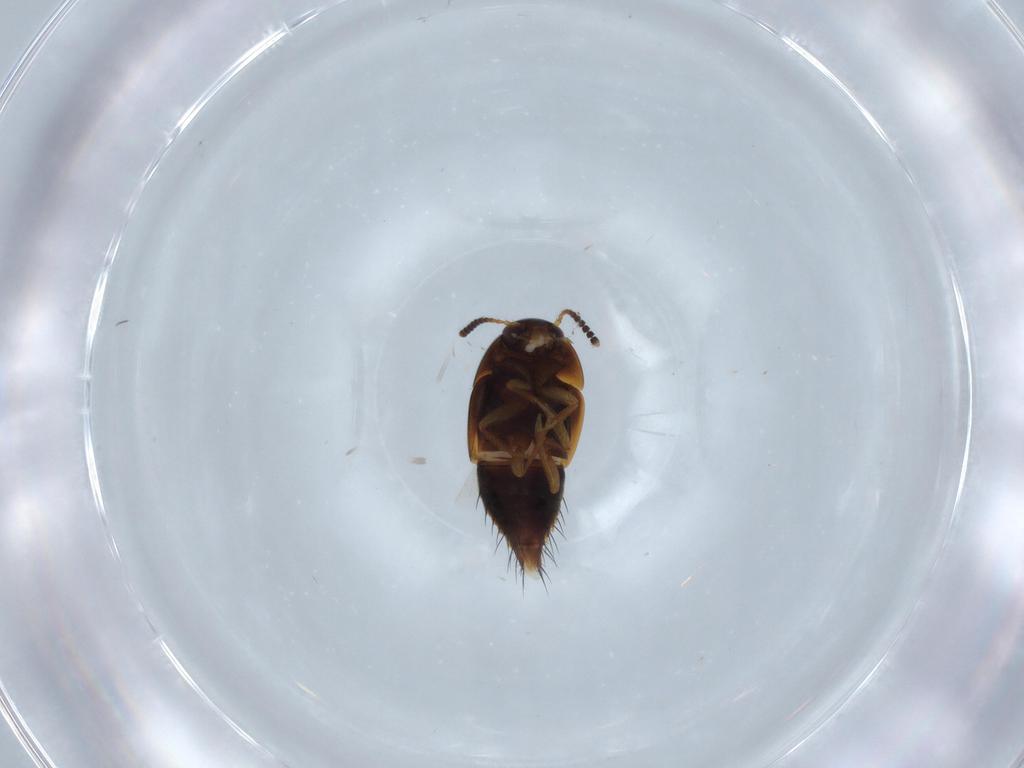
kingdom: Animalia
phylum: Arthropoda
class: Insecta
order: Coleoptera
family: Staphylinidae
